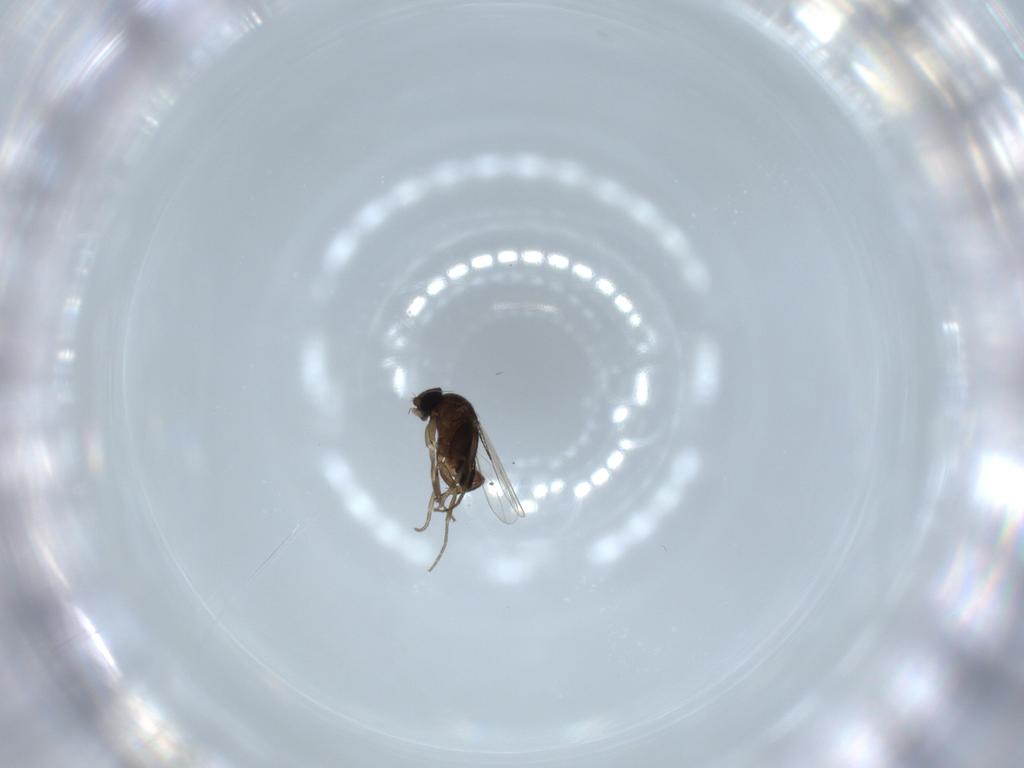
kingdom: Animalia
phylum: Arthropoda
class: Insecta
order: Diptera
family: Phoridae
